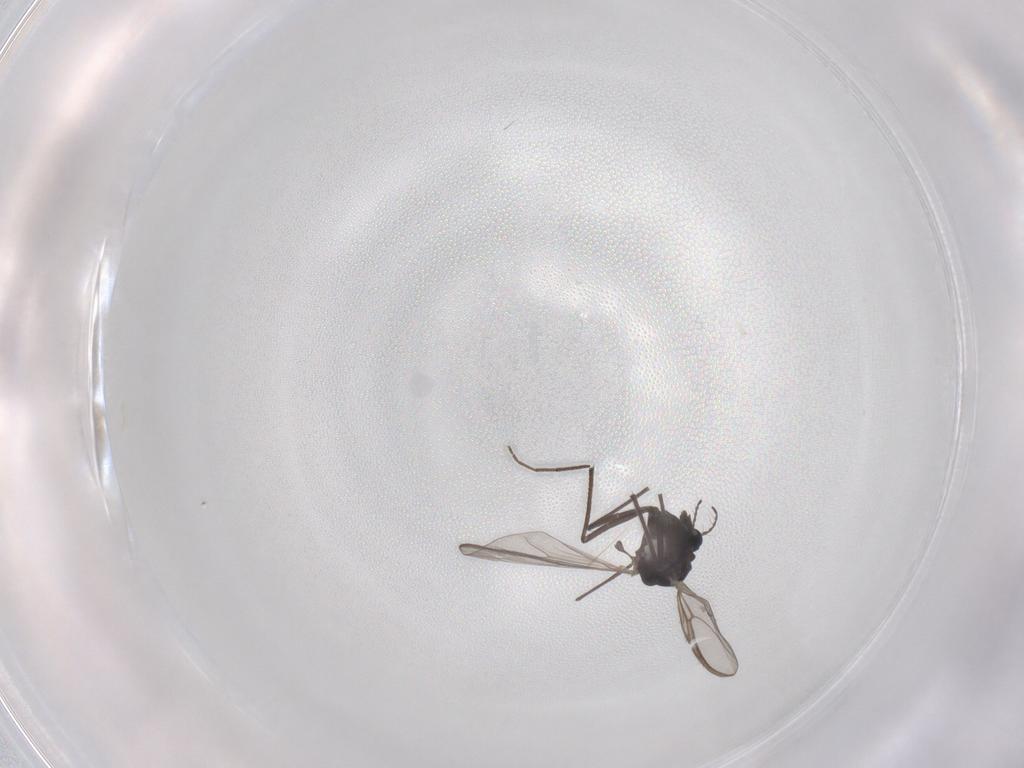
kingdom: Animalia
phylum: Arthropoda
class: Insecta
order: Diptera
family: Chironomidae
